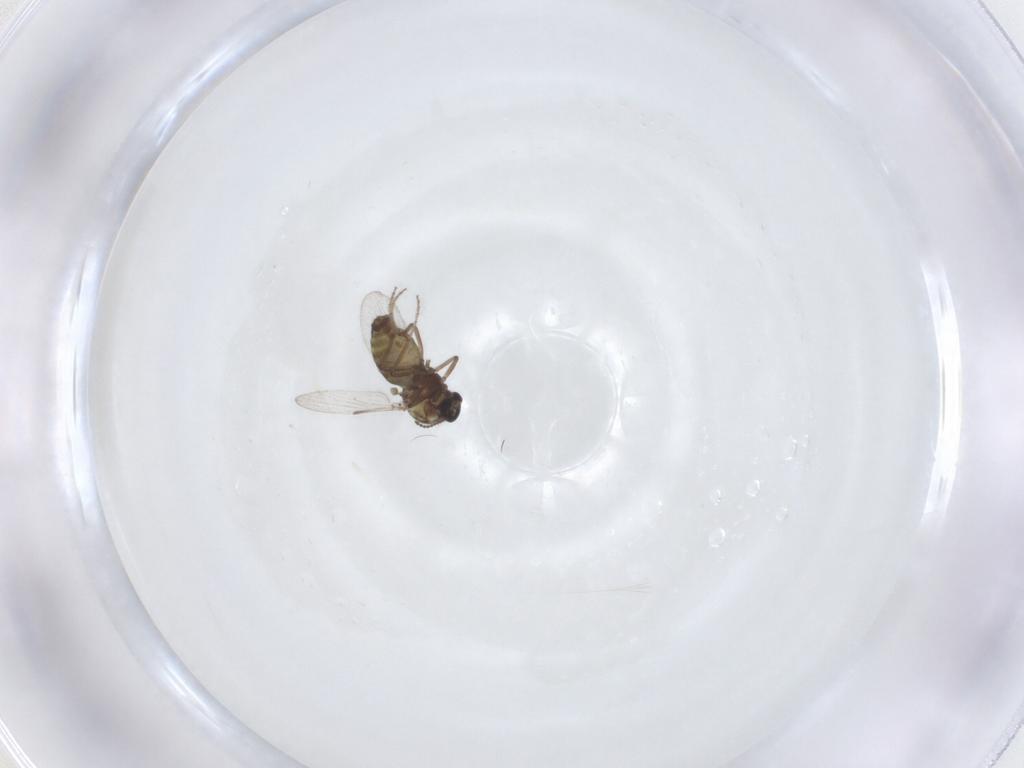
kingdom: Animalia
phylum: Arthropoda
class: Insecta
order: Diptera
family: Ceratopogonidae
